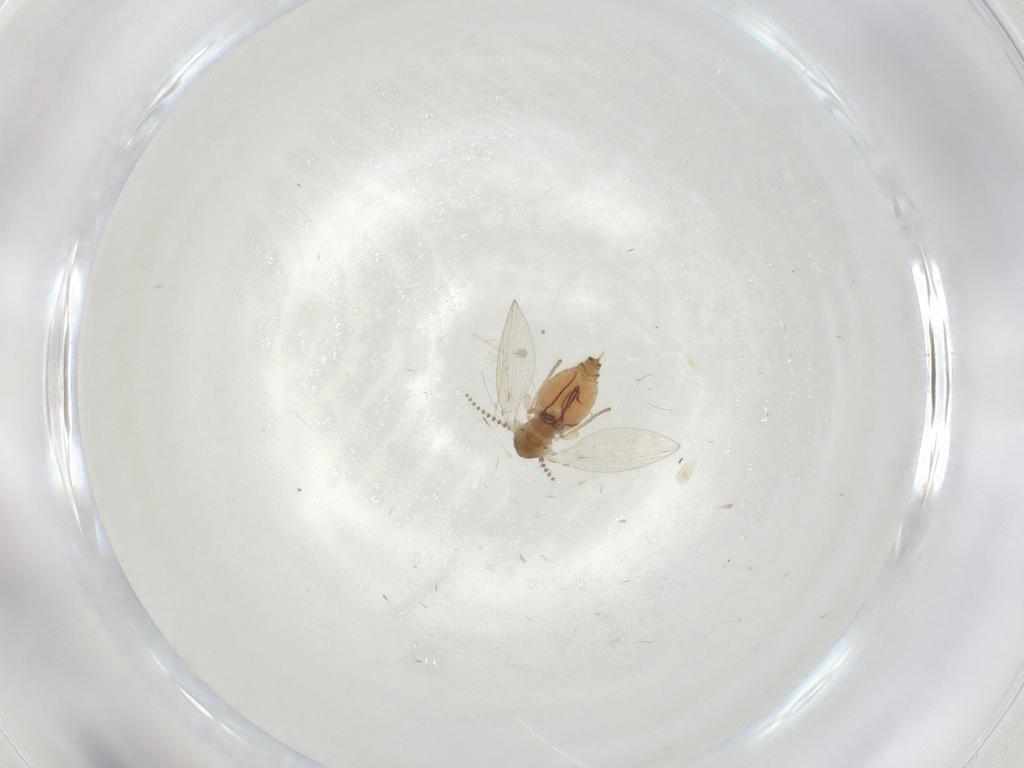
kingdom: Animalia
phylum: Arthropoda
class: Insecta
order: Diptera
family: Psychodidae
